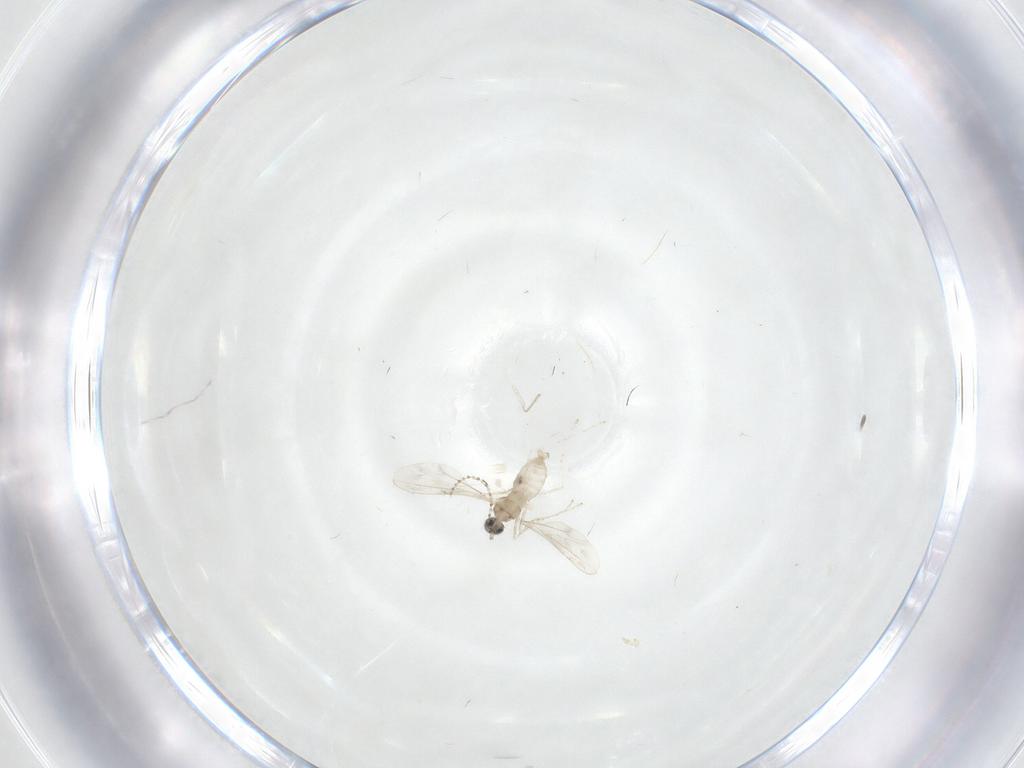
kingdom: Animalia
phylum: Arthropoda
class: Insecta
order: Diptera
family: Cecidomyiidae
